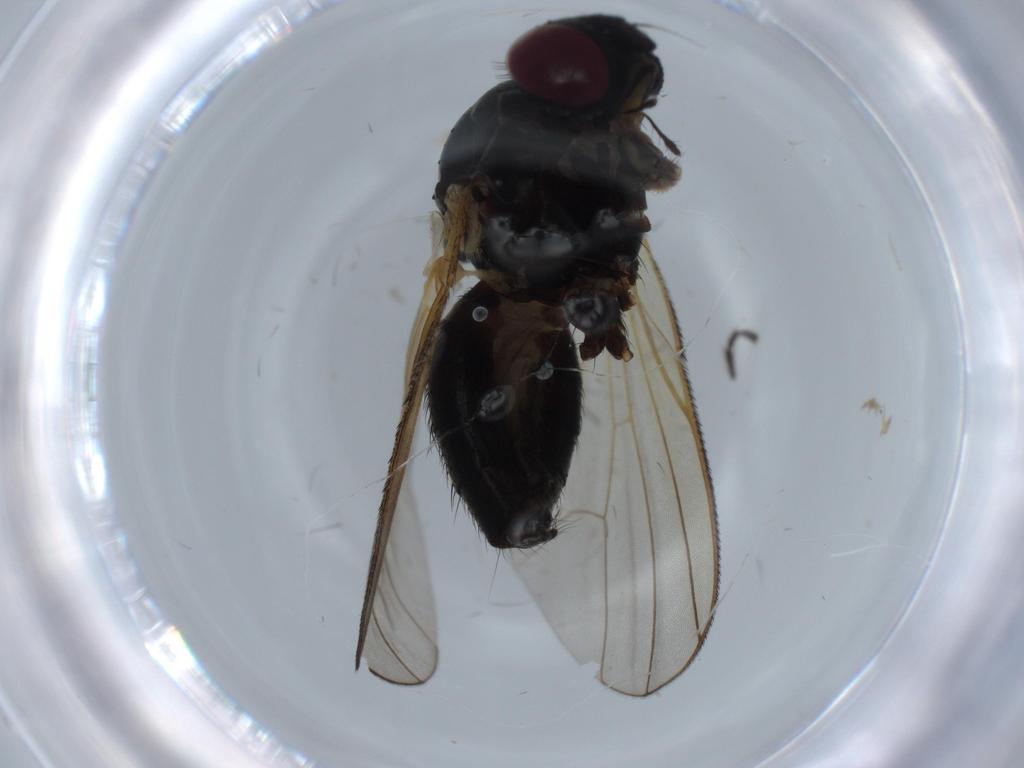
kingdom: Animalia
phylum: Arthropoda
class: Insecta
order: Diptera
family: Fannia
